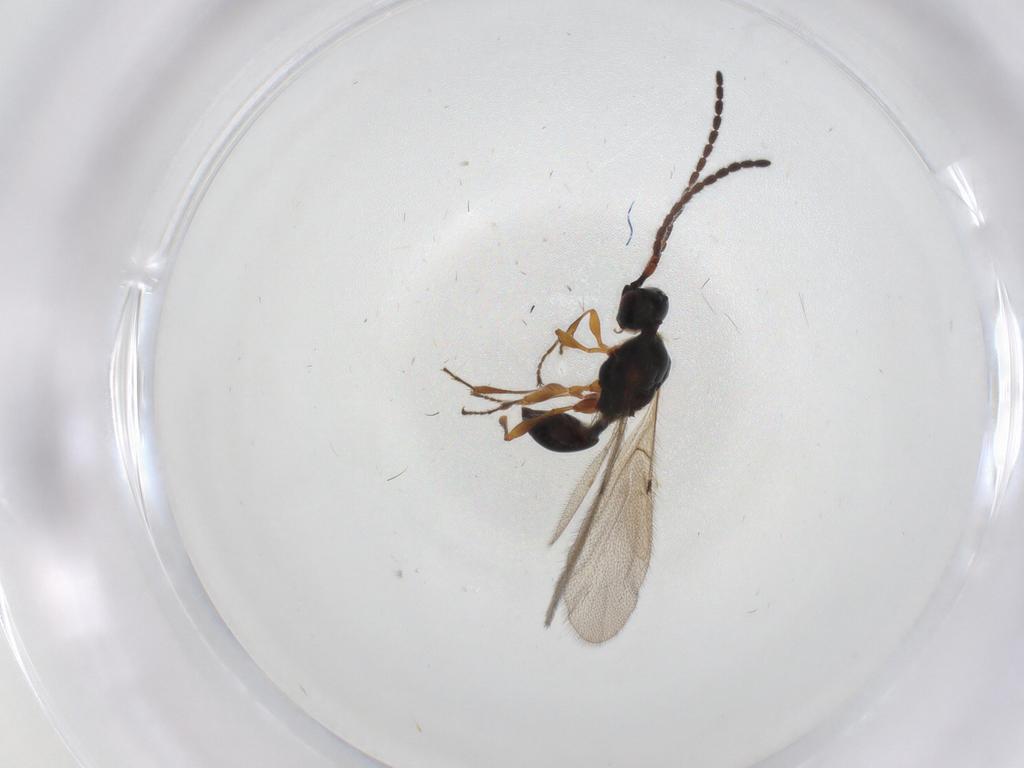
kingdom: Animalia
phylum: Arthropoda
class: Insecta
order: Hymenoptera
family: Diapriidae
